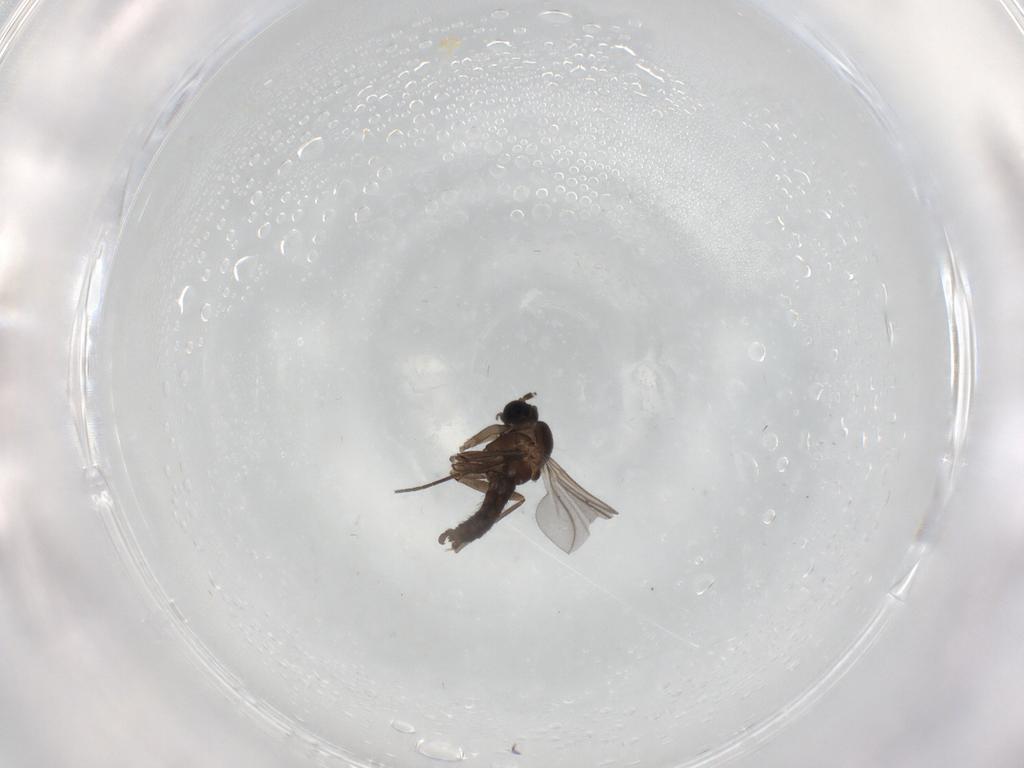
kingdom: Animalia
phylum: Arthropoda
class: Insecta
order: Diptera
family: Sciaridae
